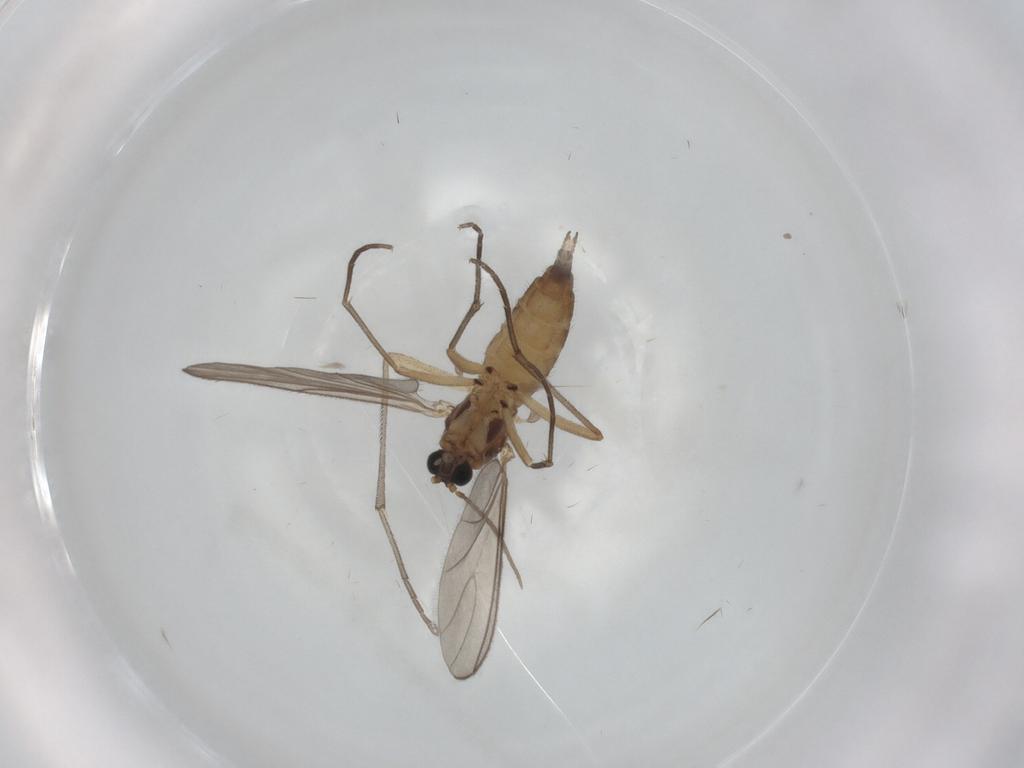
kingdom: Animalia
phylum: Arthropoda
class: Insecta
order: Diptera
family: Sciaridae
